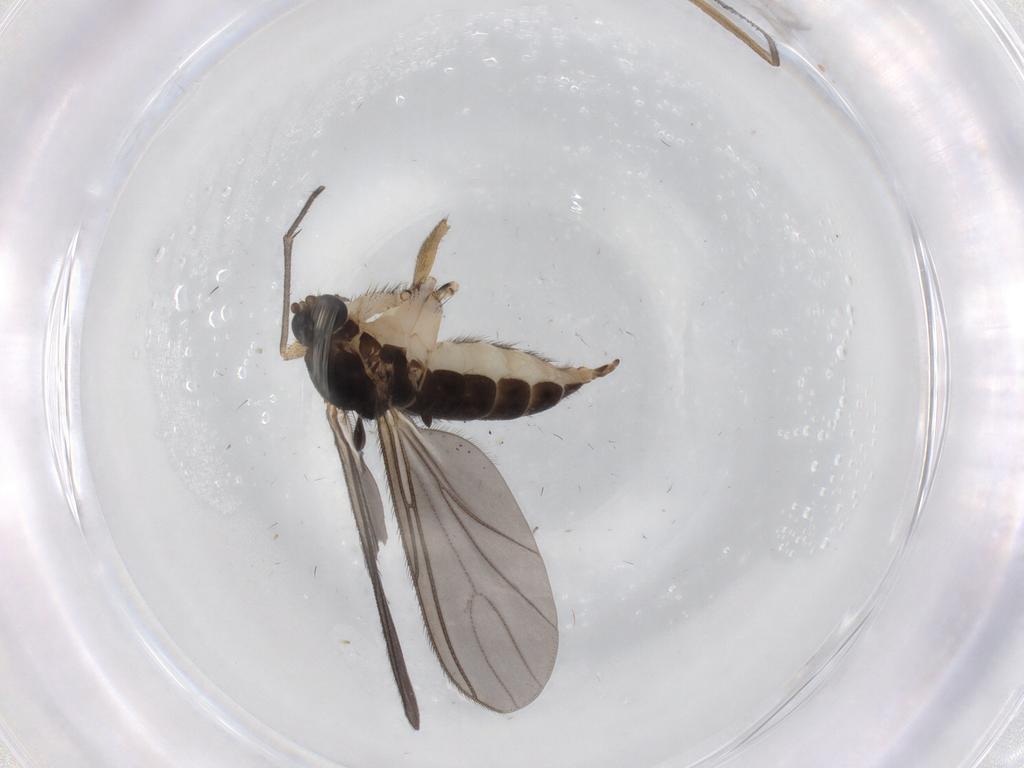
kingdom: Animalia
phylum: Arthropoda
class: Insecta
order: Diptera
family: Sciaridae
